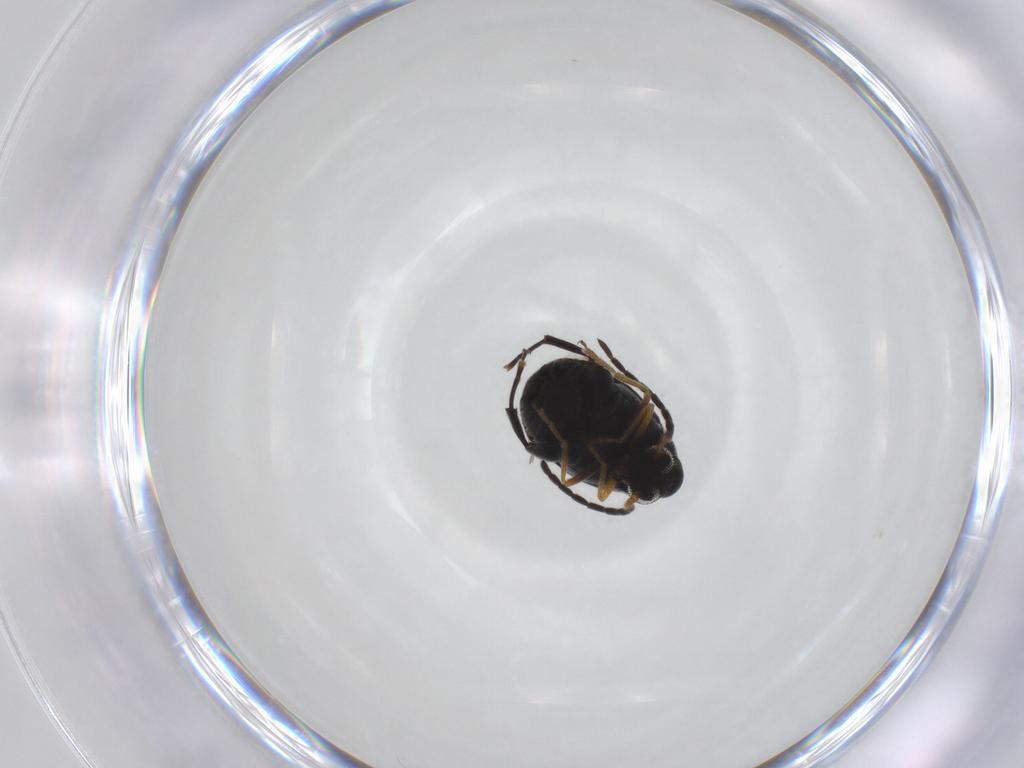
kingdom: Animalia
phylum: Arthropoda
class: Insecta
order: Coleoptera
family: Chrysomelidae
